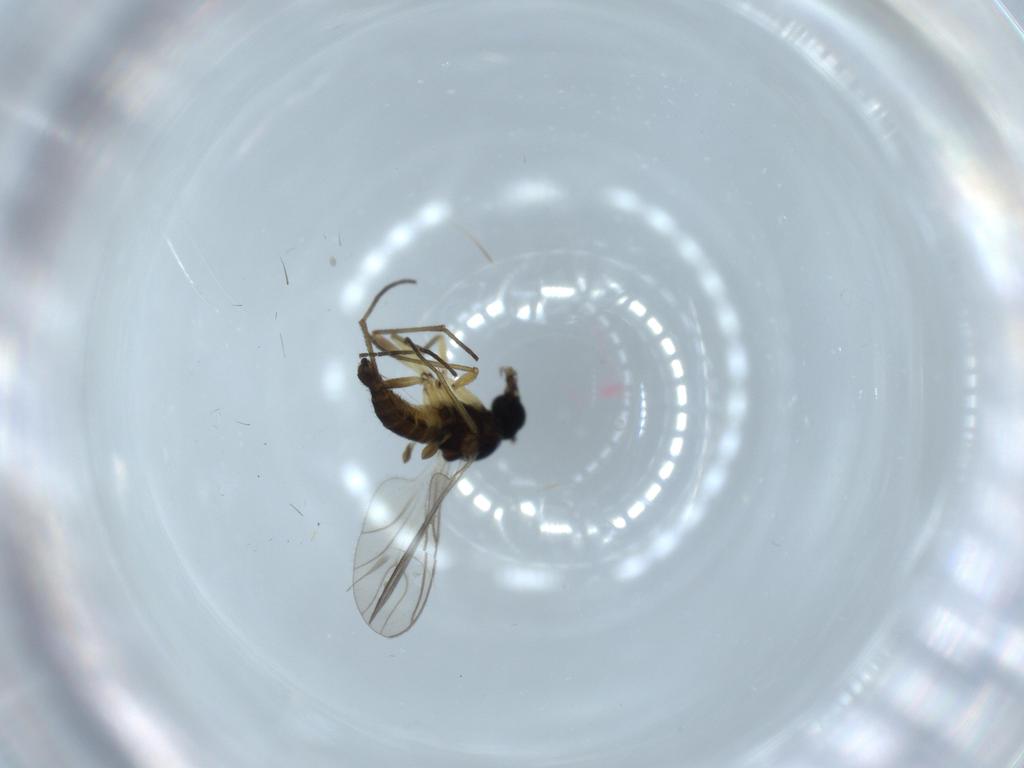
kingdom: Animalia
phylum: Arthropoda
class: Insecta
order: Diptera
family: Sciaridae
